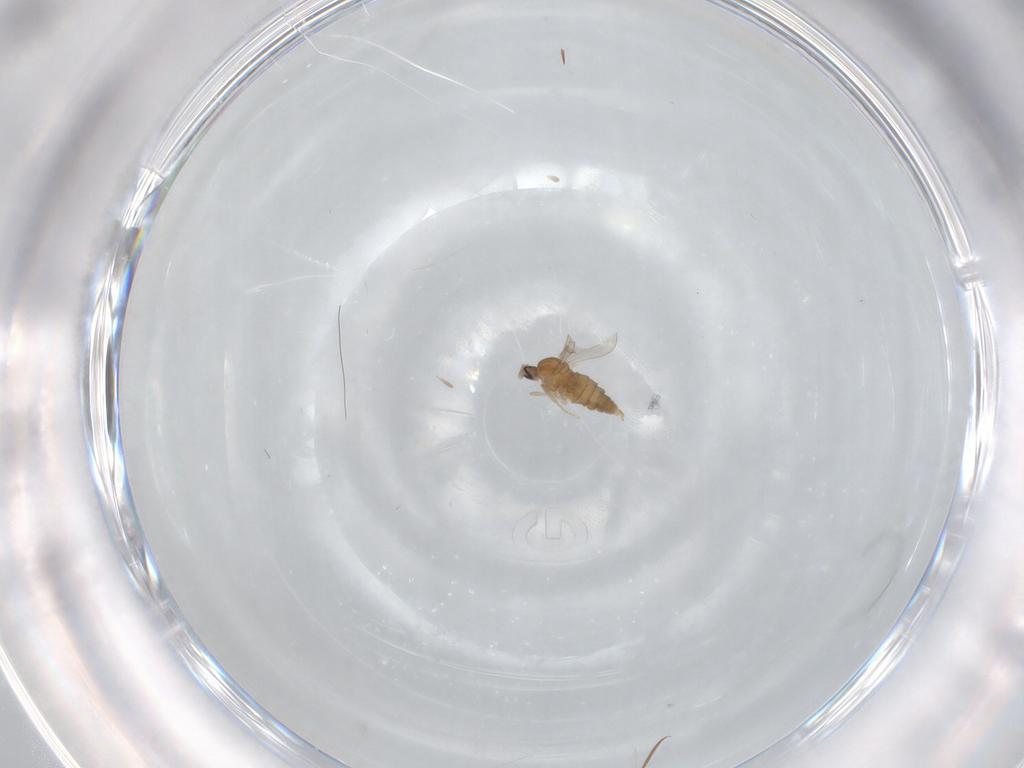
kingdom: Animalia
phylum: Arthropoda
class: Insecta
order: Diptera
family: Cecidomyiidae
